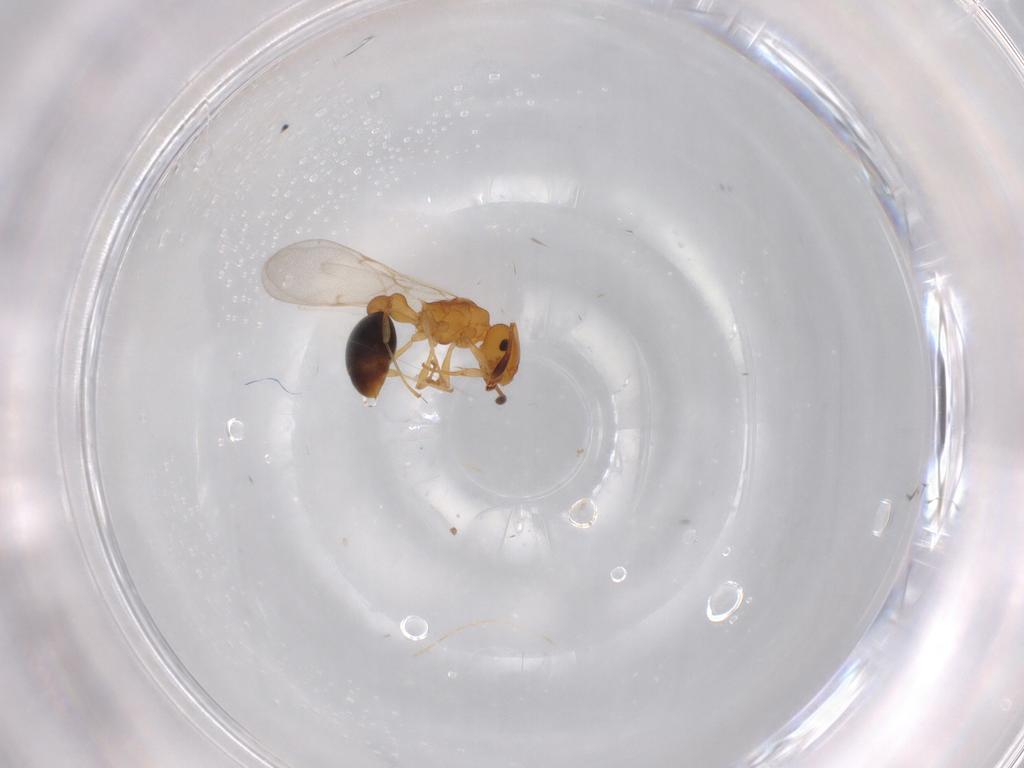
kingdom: Animalia
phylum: Arthropoda
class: Insecta
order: Hymenoptera
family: Formicidae
